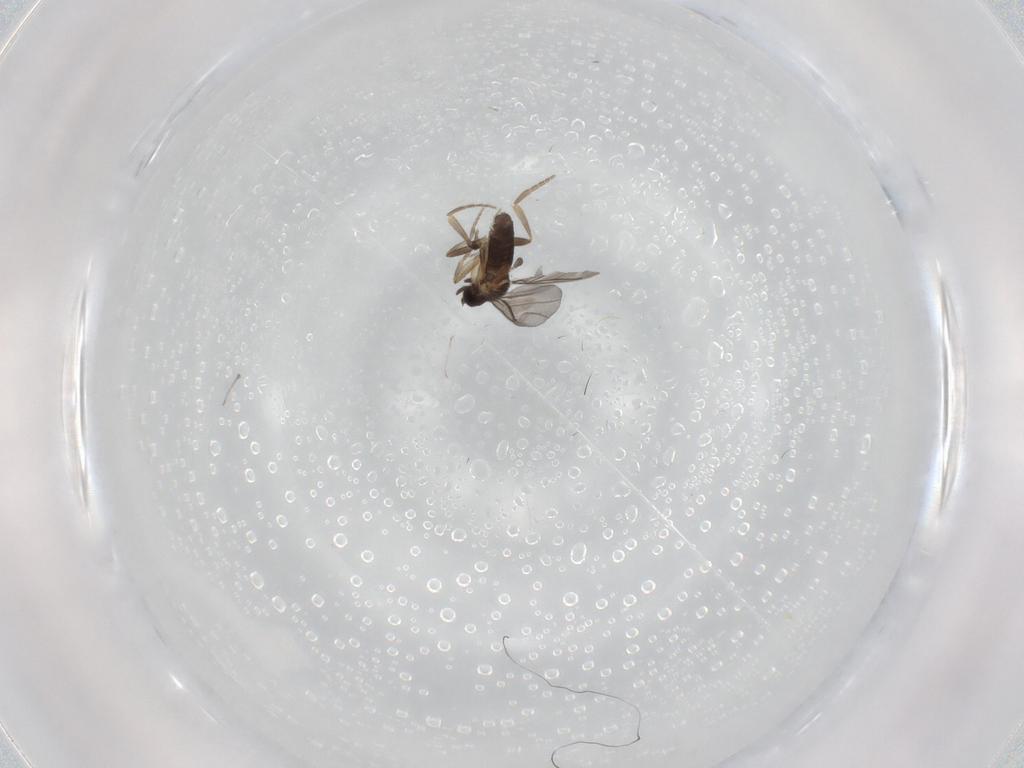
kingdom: Animalia
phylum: Arthropoda
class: Insecta
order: Diptera
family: Phoridae
